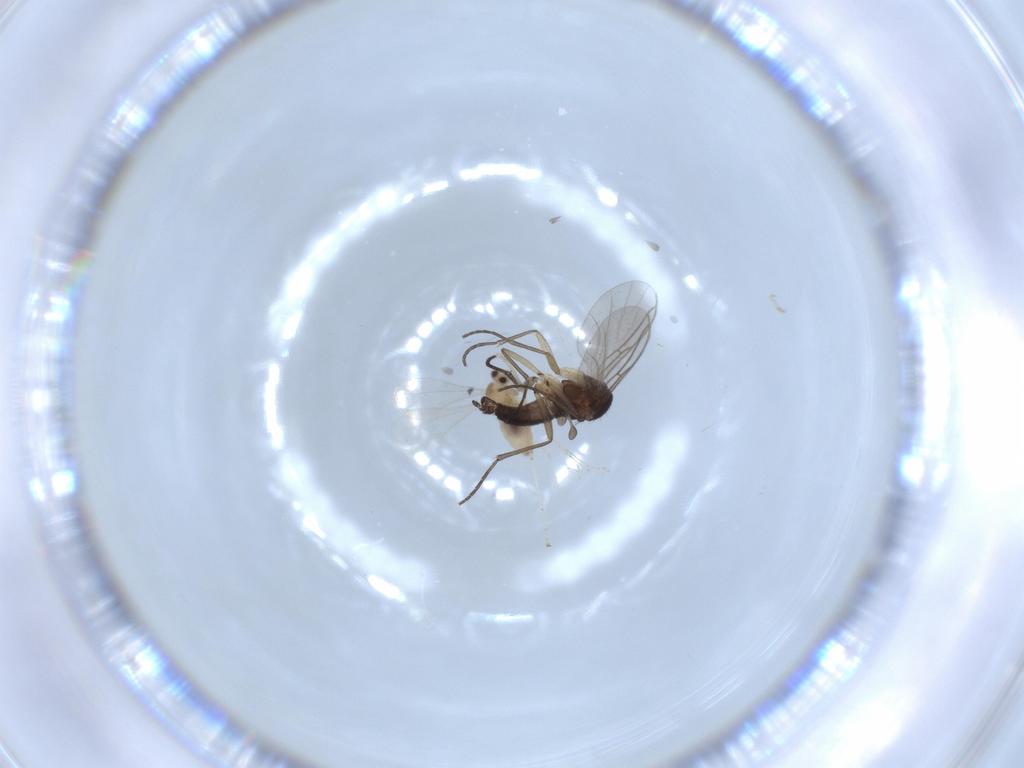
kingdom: Animalia
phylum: Arthropoda
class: Insecta
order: Diptera
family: Sciaridae
